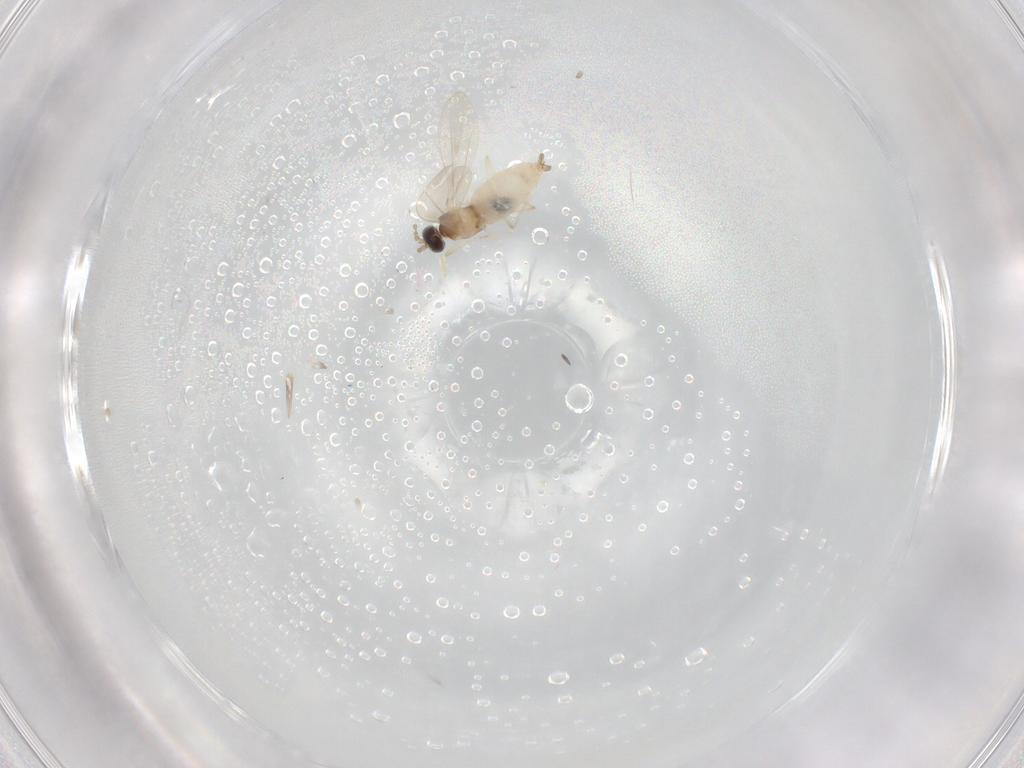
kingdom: Animalia
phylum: Arthropoda
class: Insecta
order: Diptera
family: Cecidomyiidae
